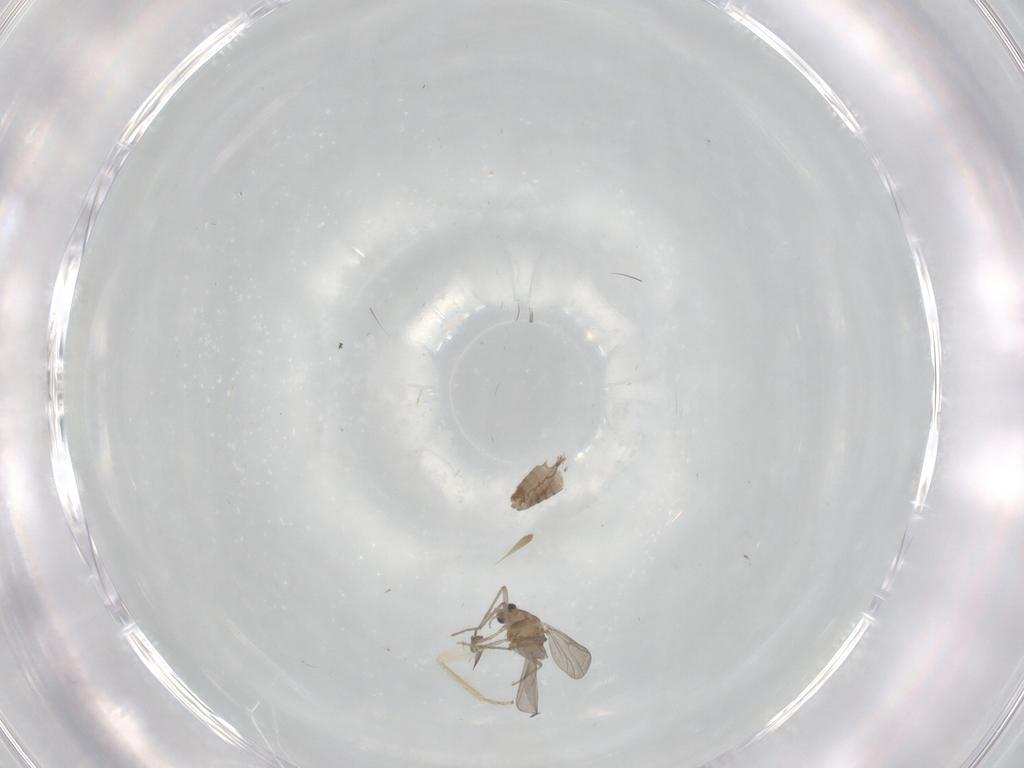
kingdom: Animalia
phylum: Arthropoda
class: Insecta
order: Diptera
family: Chironomidae
